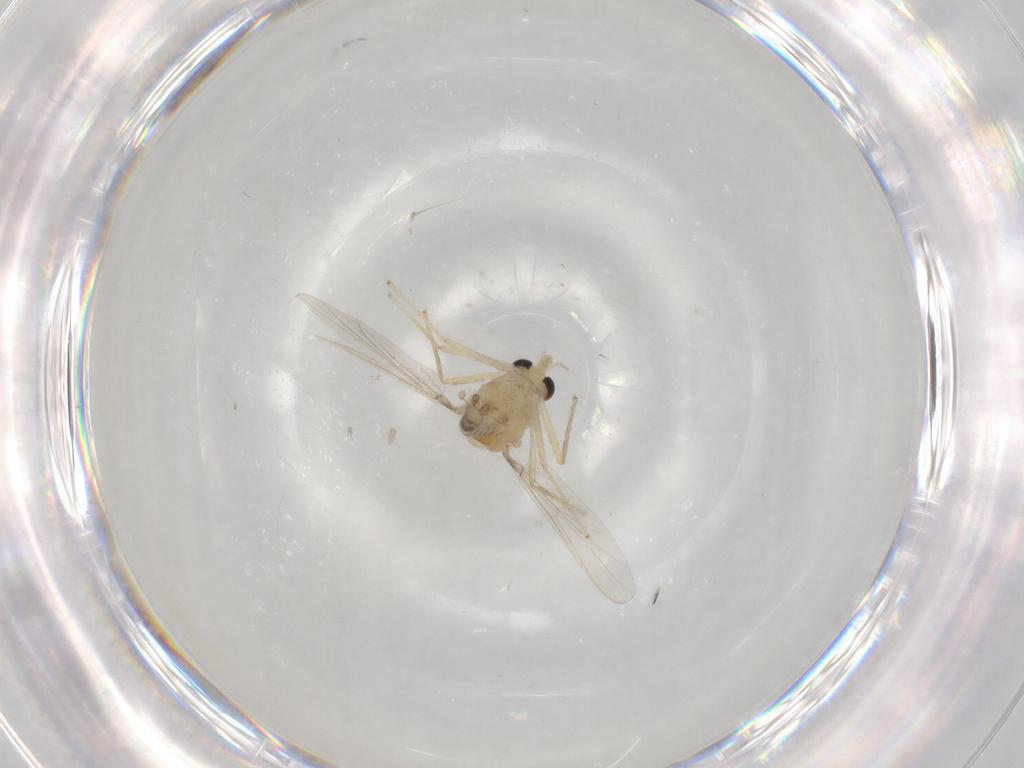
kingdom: Animalia
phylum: Arthropoda
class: Insecta
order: Diptera
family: Chironomidae
